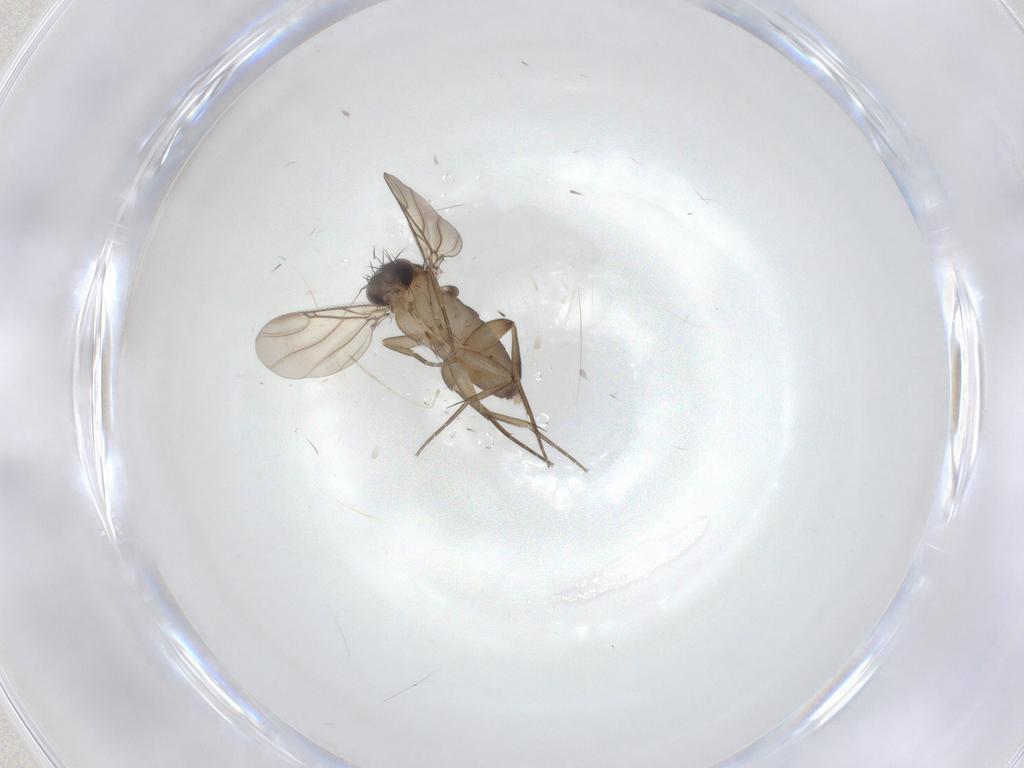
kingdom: Animalia
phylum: Arthropoda
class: Insecta
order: Diptera
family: Phoridae
